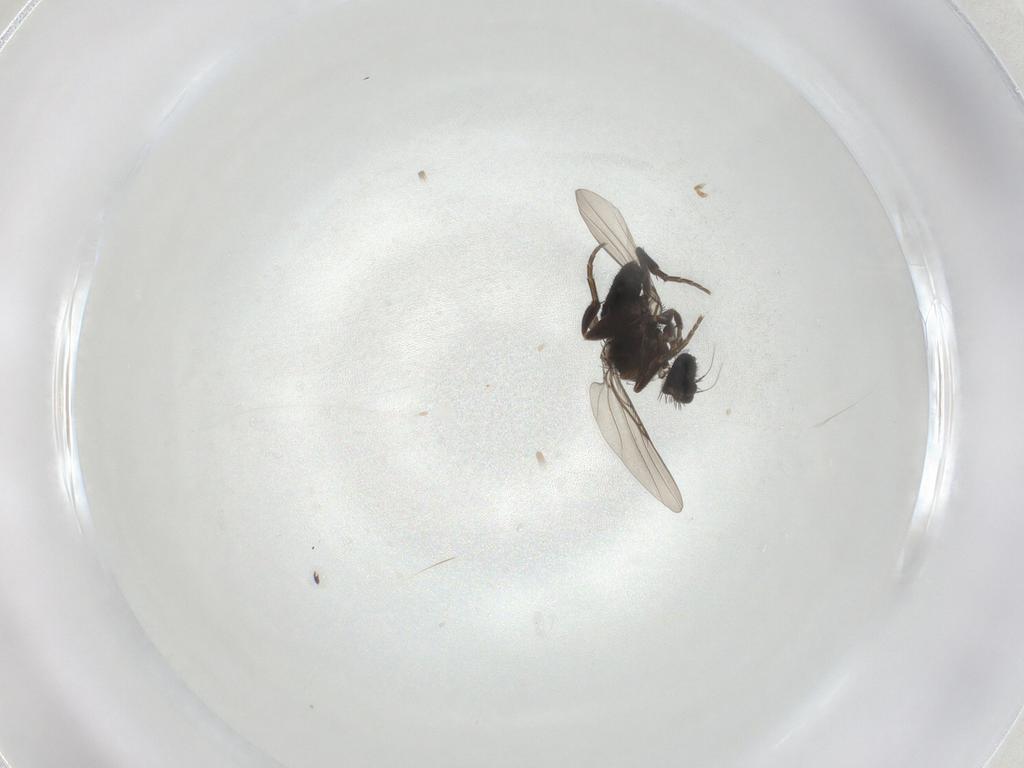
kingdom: Animalia
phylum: Arthropoda
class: Insecta
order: Diptera
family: Phoridae
